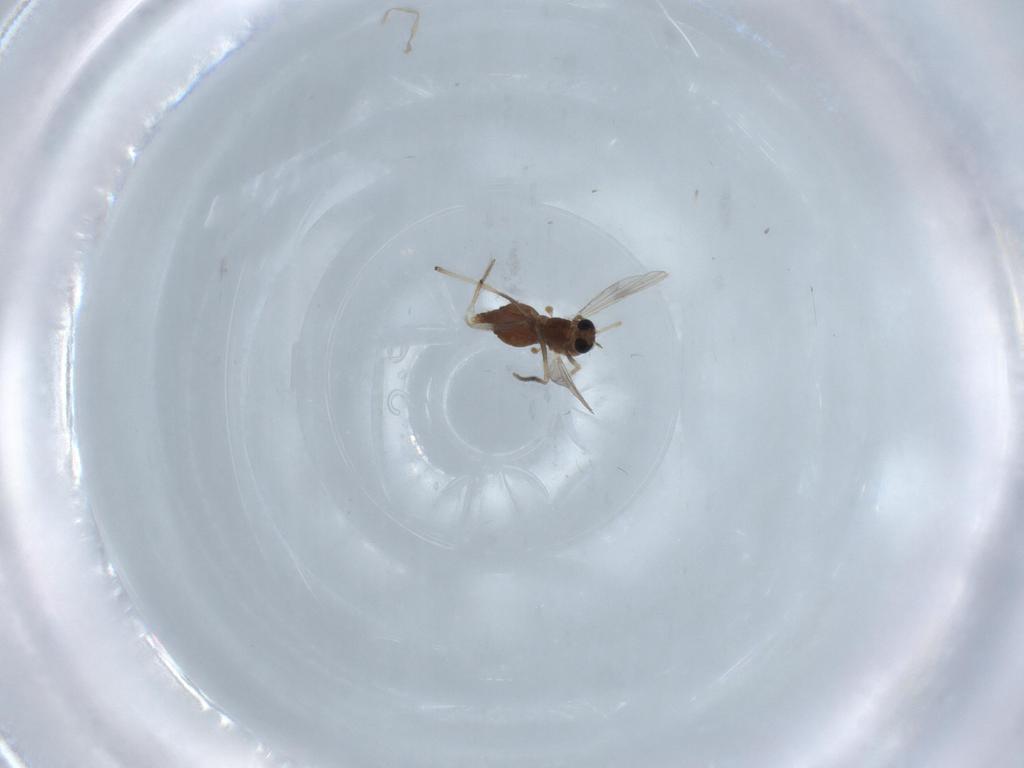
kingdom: Animalia
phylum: Arthropoda
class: Insecta
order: Diptera
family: Chironomidae
